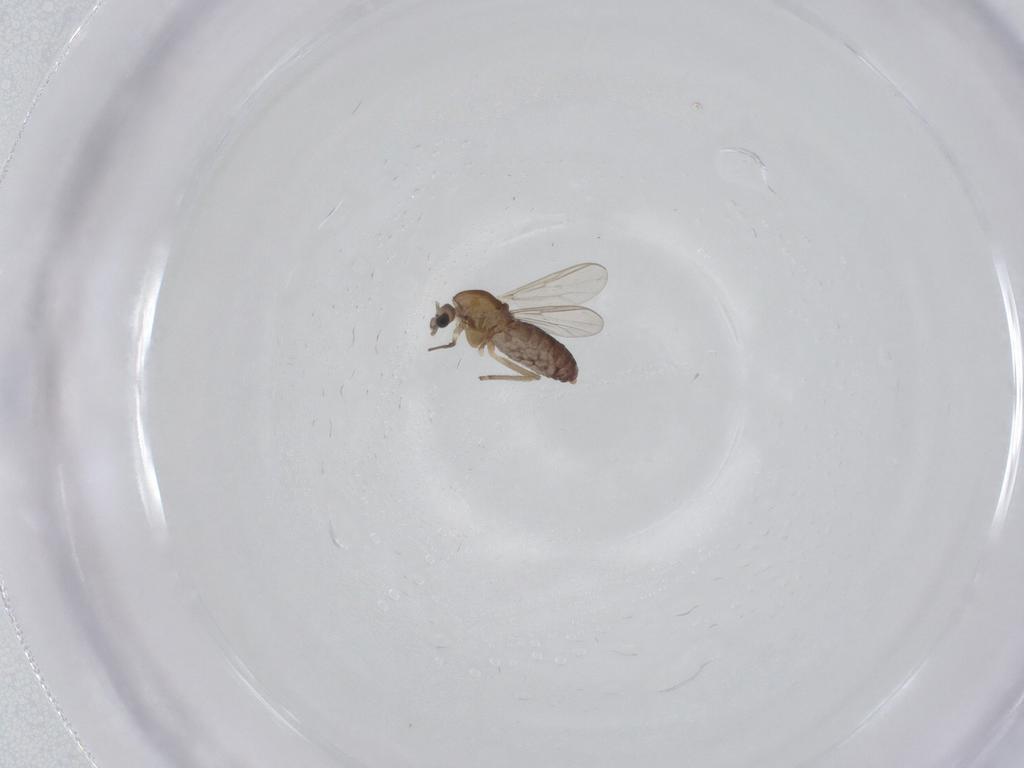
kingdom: Animalia
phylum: Arthropoda
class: Insecta
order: Diptera
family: Chironomidae
